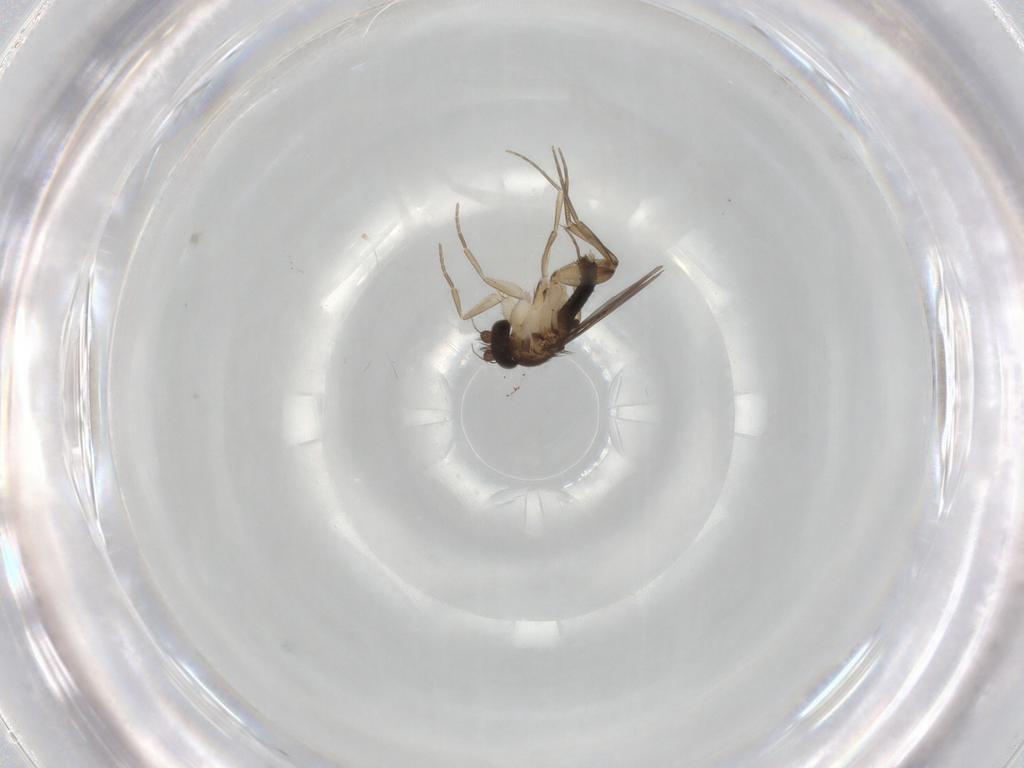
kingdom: Animalia
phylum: Arthropoda
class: Insecta
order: Diptera
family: Phoridae
